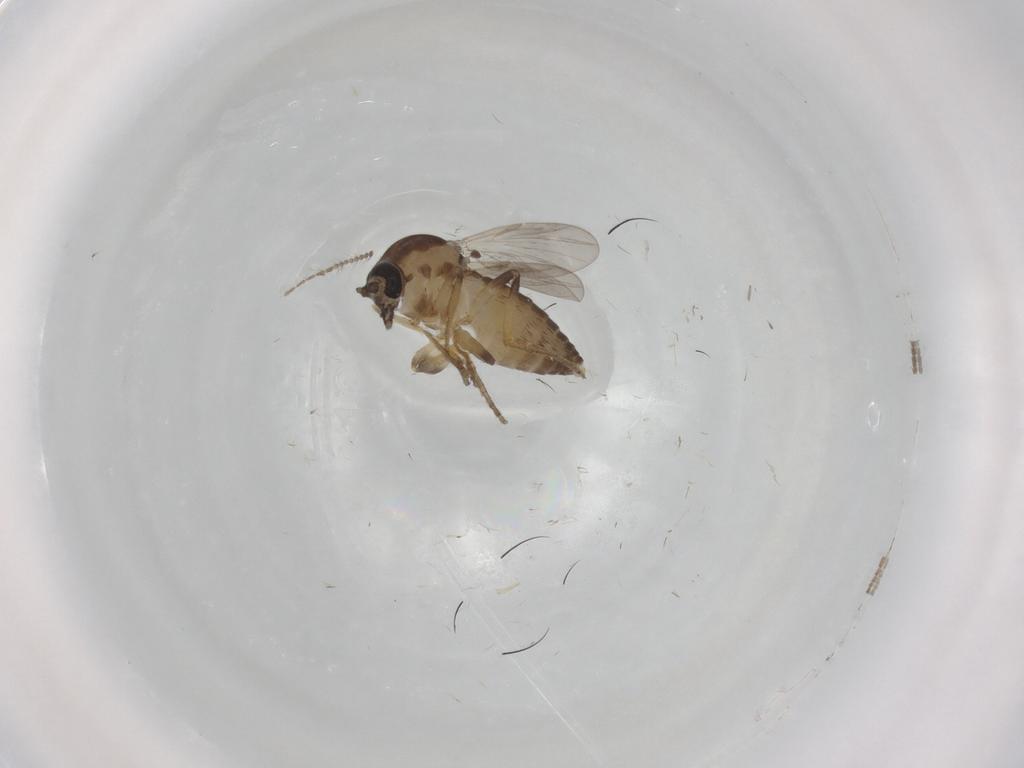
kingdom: Animalia
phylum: Arthropoda
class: Insecta
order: Diptera
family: Ceratopogonidae
